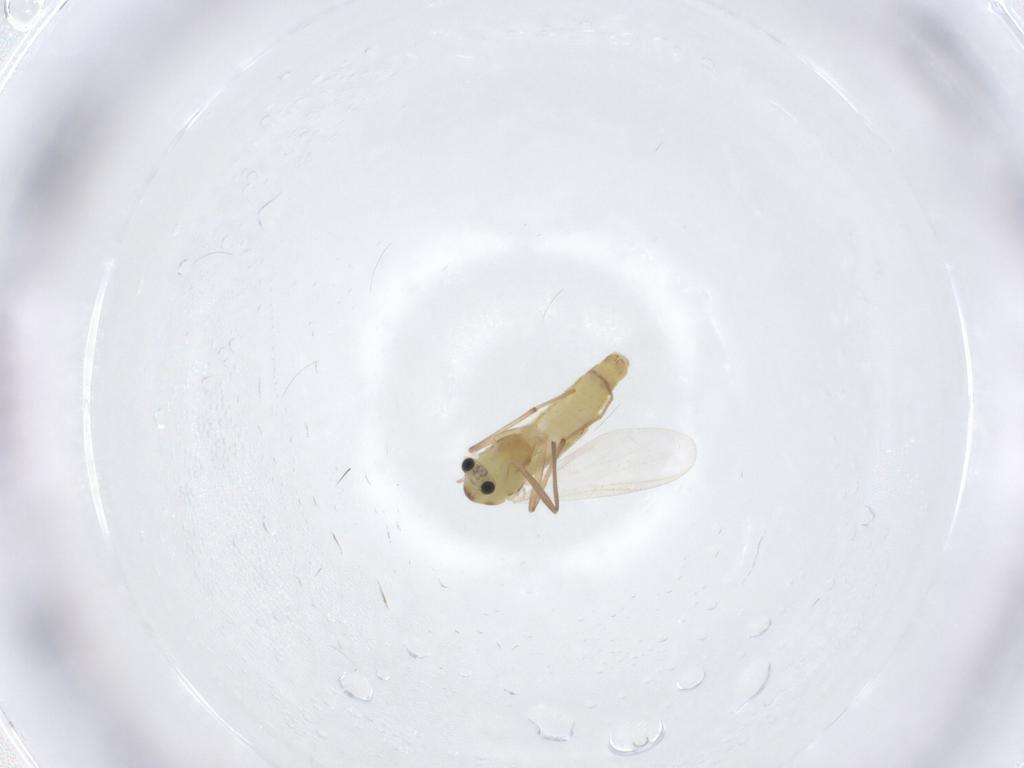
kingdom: Animalia
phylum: Arthropoda
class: Insecta
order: Diptera
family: Chironomidae
